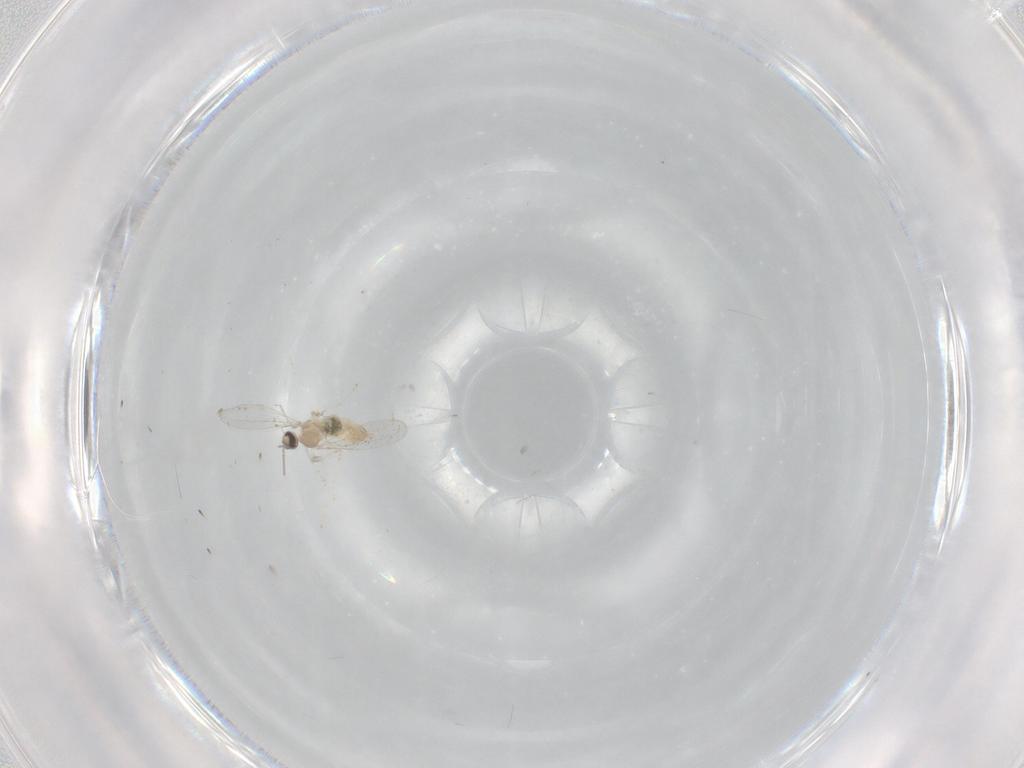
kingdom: Animalia
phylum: Arthropoda
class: Insecta
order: Diptera
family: Cecidomyiidae
